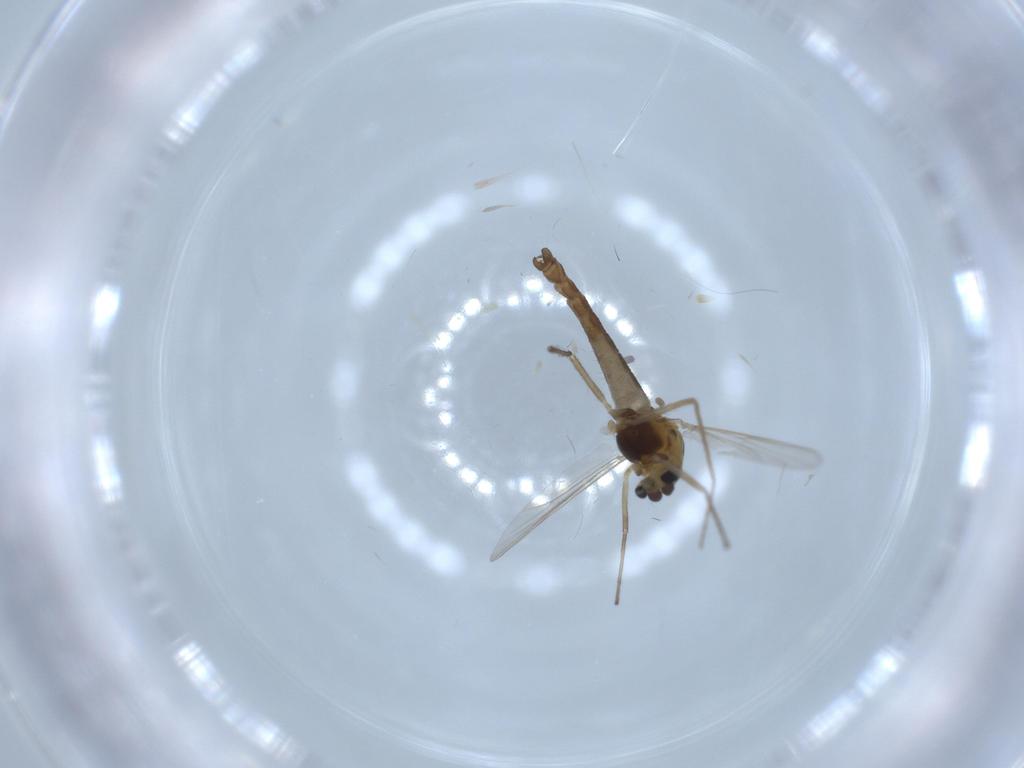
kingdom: Animalia
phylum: Arthropoda
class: Insecta
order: Diptera
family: Chironomidae
